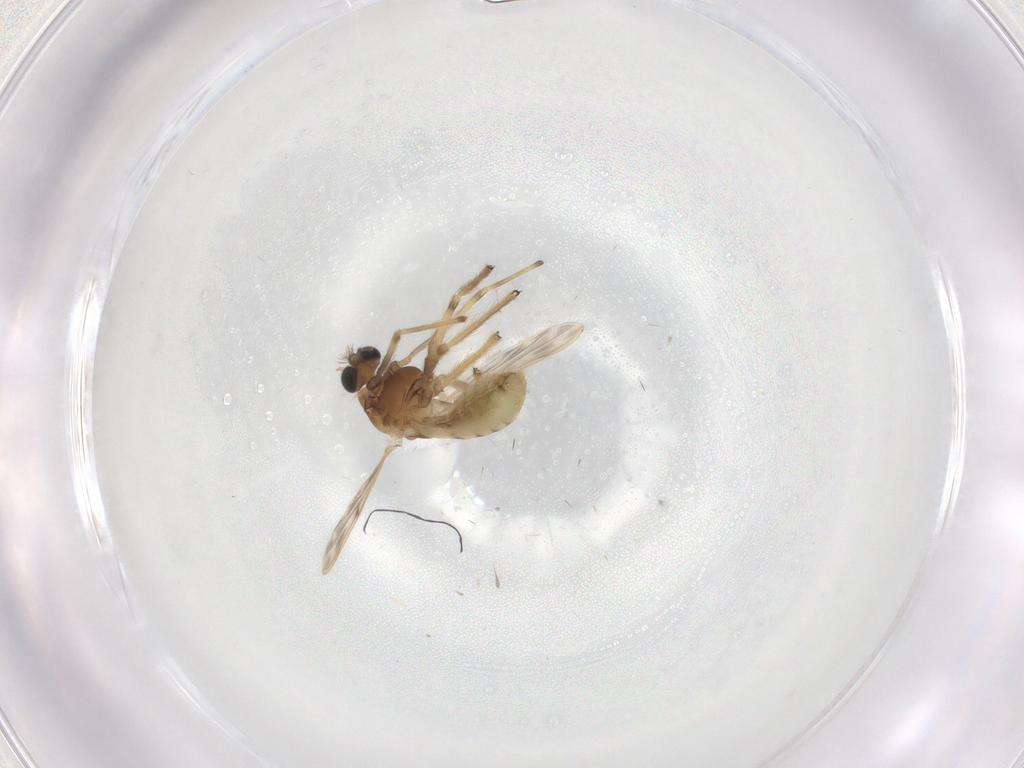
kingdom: Animalia
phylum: Arthropoda
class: Insecta
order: Diptera
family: Chironomidae
